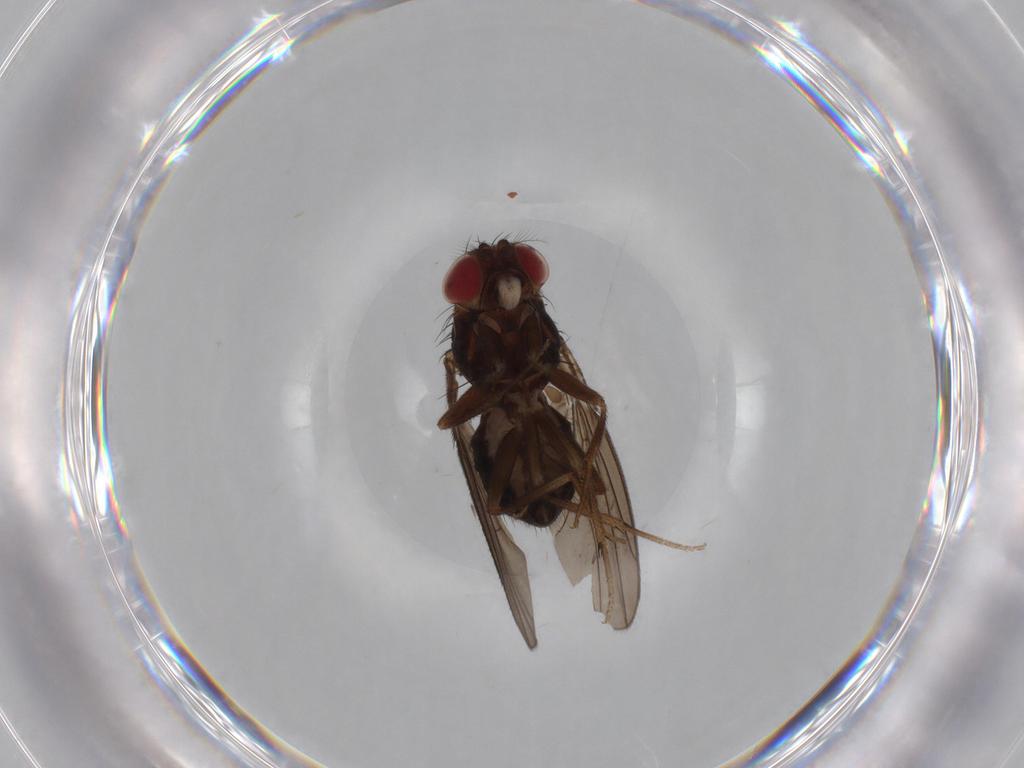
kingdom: Animalia
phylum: Arthropoda
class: Insecta
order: Diptera
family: Drosophilidae
